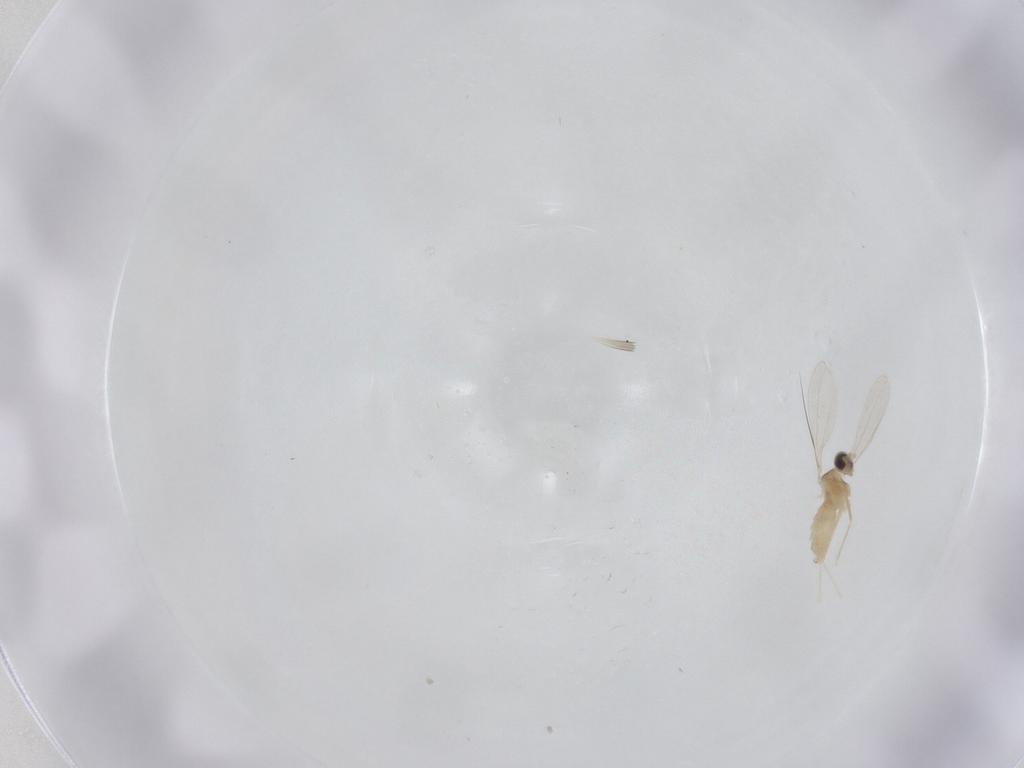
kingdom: Animalia
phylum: Arthropoda
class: Insecta
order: Diptera
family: Cecidomyiidae
